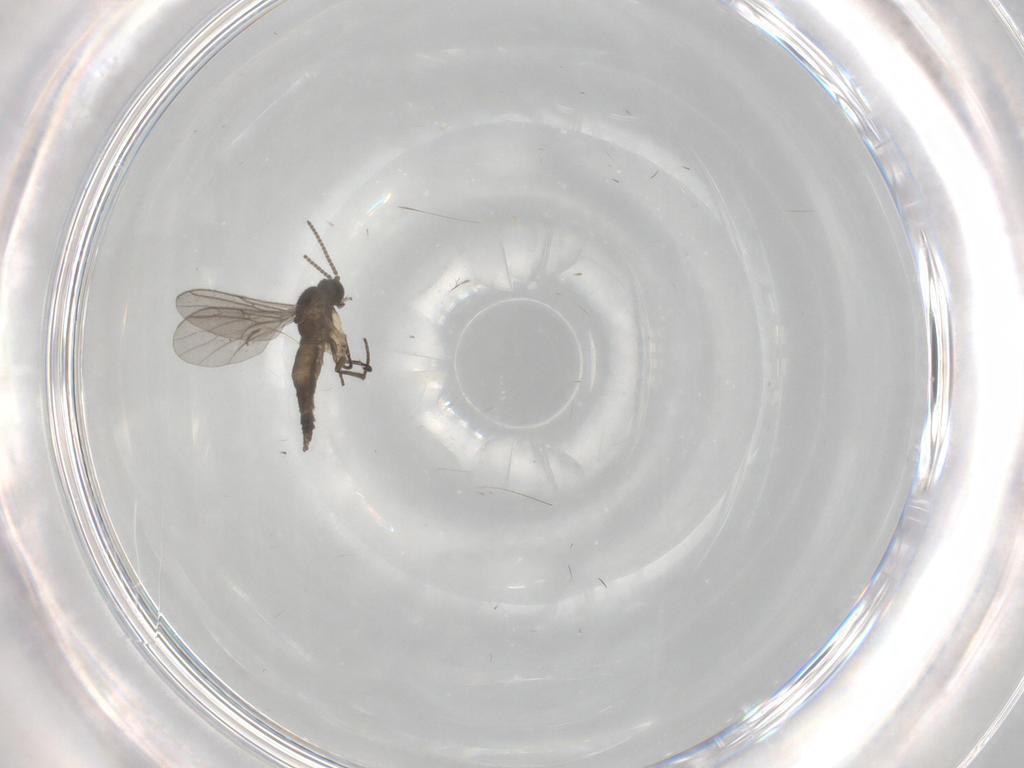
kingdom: Animalia
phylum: Arthropoda
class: Insecta
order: Diptera
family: Sciaridae
